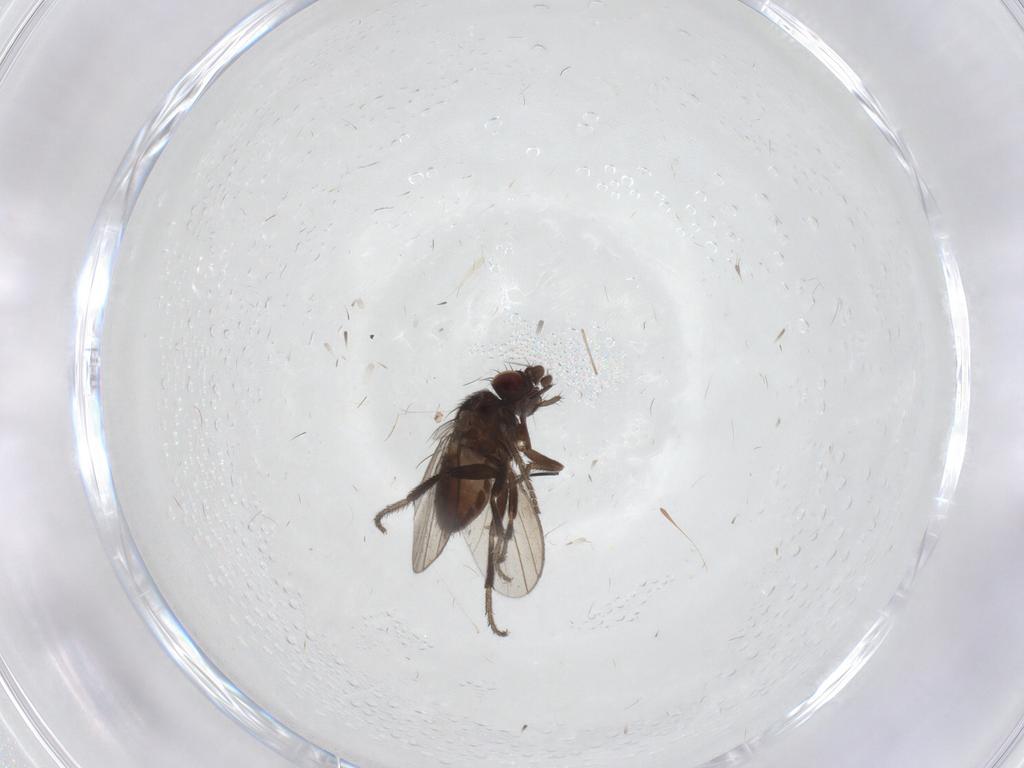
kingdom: Animalia
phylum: Arthropoda
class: Insecta
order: Diptera
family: Milichiidae
